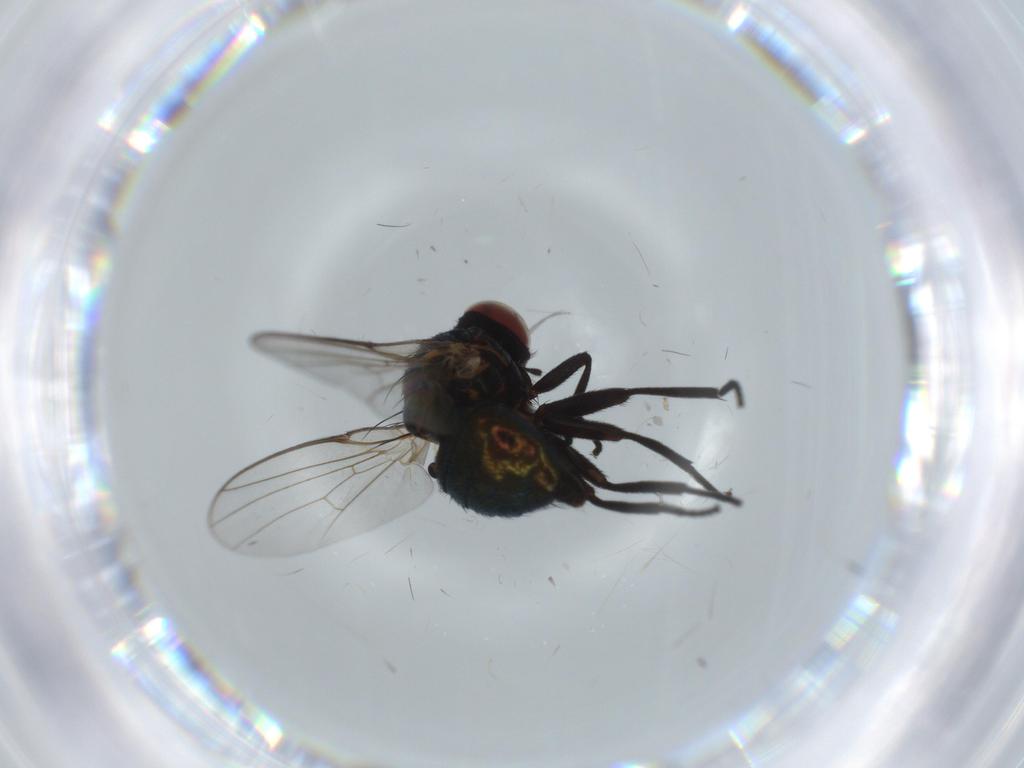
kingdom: Animalia
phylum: Arthropoda
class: Insecta
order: Diptera
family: Agromyzidae
